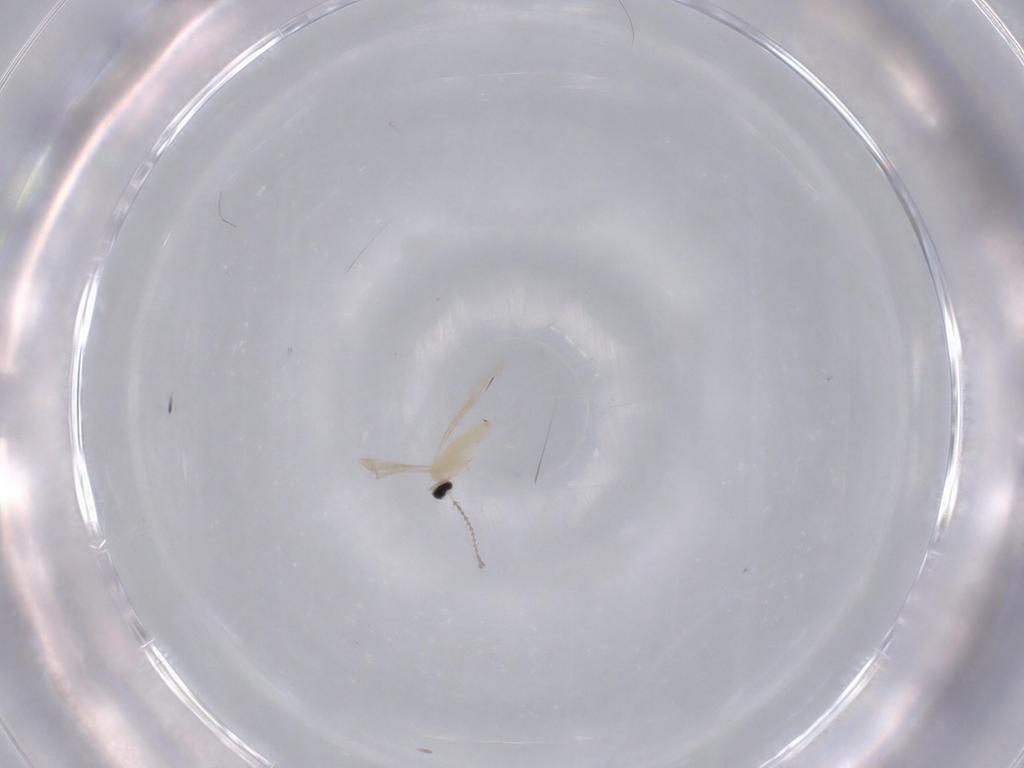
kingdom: Animalia
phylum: Arthropoda
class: Insecta
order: Diptera
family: Cecidomyiidae
